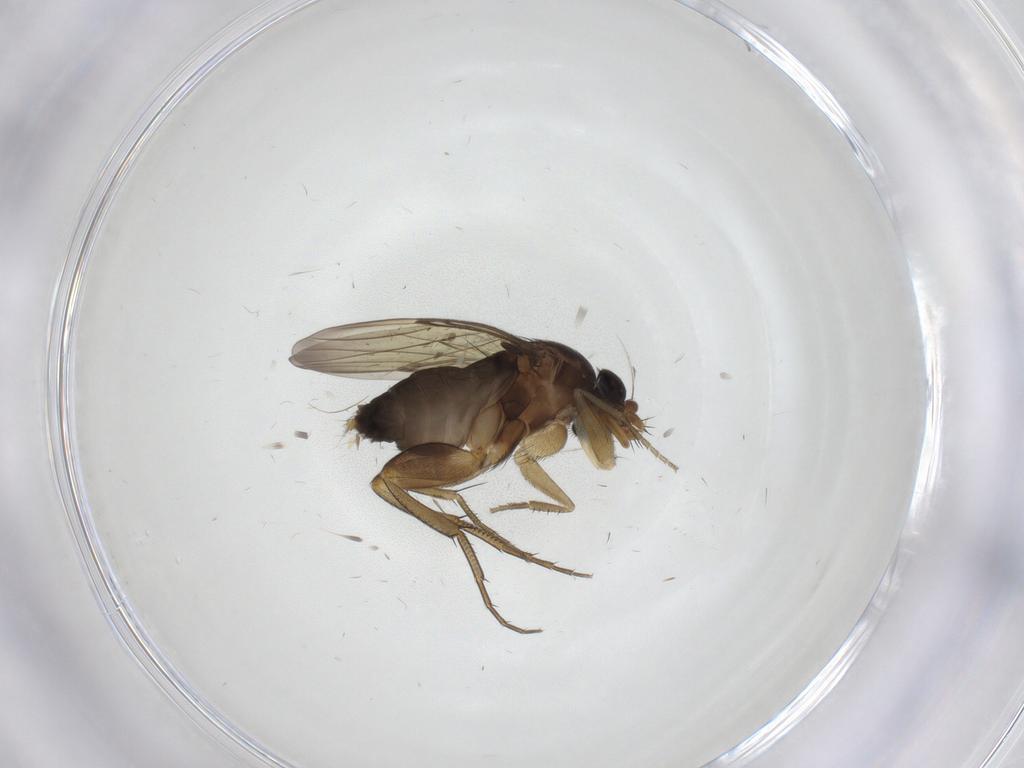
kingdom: Animalia
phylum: Arthropoda
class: Insecta
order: Diptera
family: Phoridae
